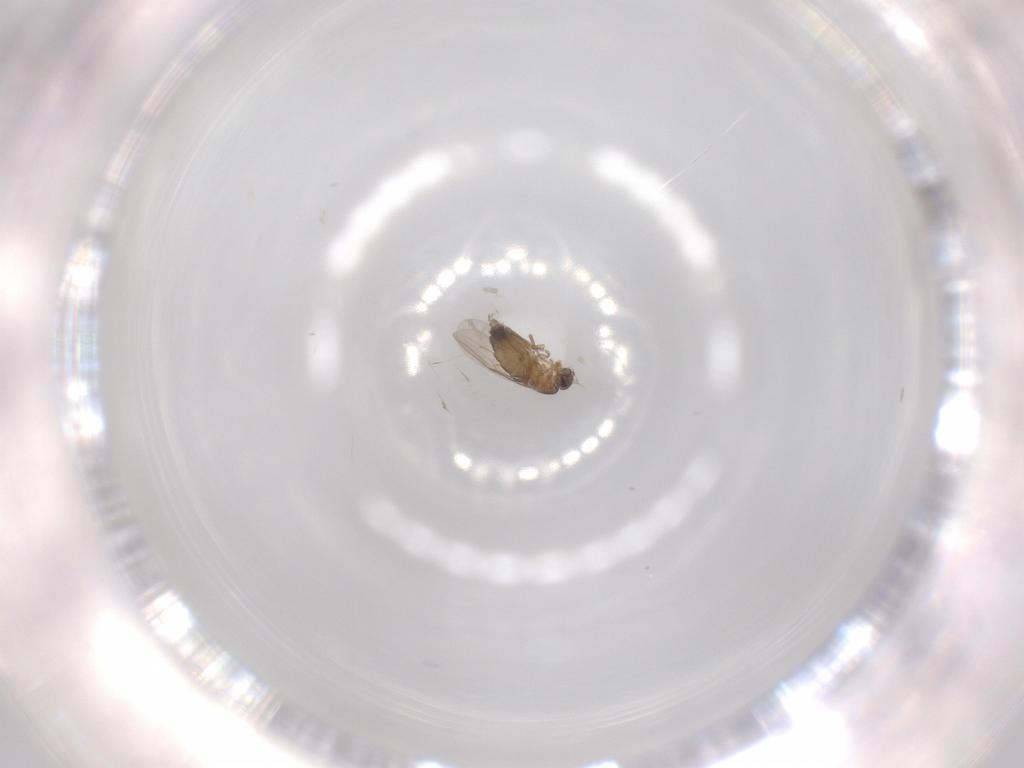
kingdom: Animalia
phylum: Arthropoda
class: Insecta
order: Diptera
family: Phoridae
